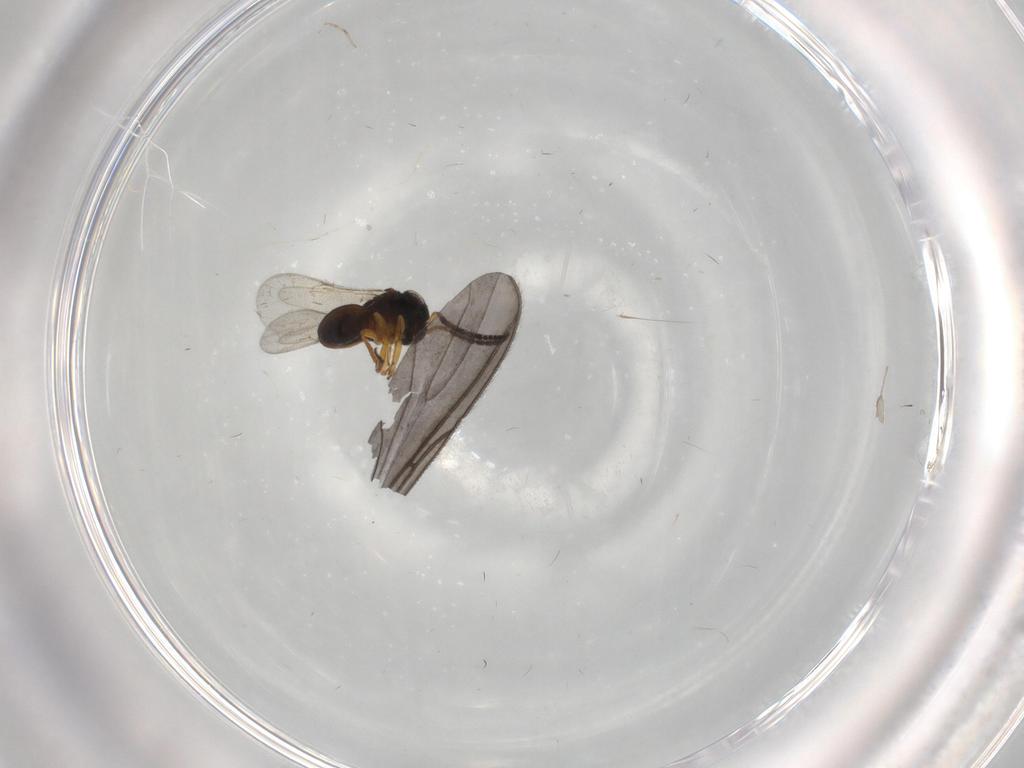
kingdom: Animalia
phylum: Arthropoda
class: Insecta
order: Coleoptera
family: Curculionidae
